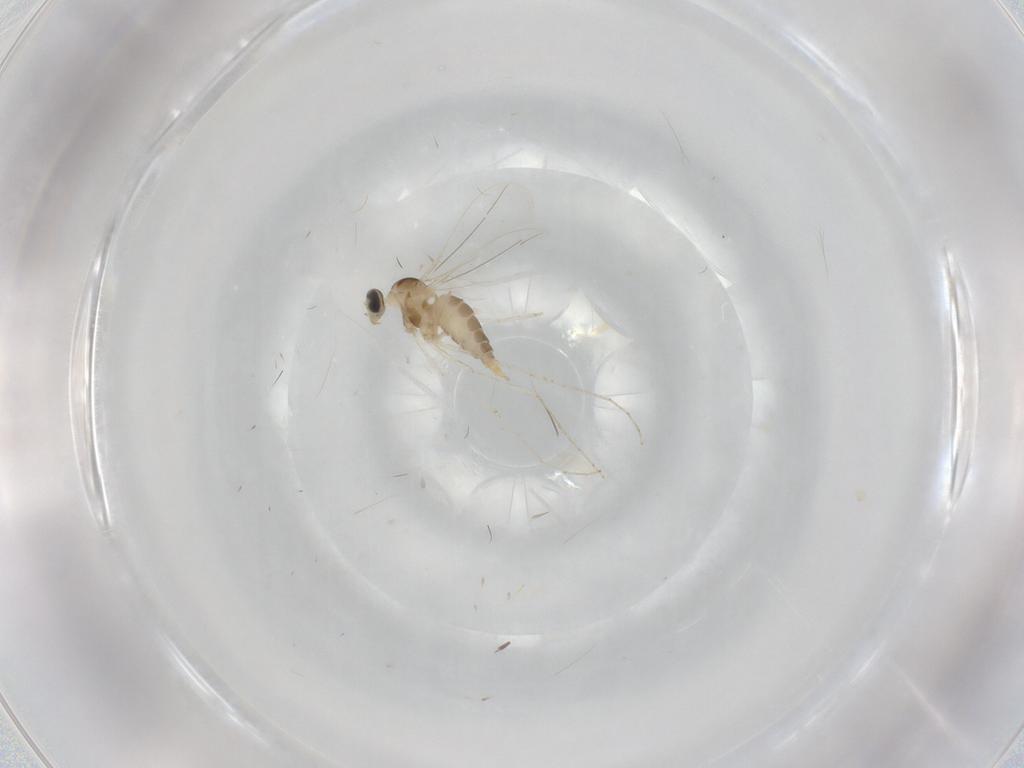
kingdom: Animalia
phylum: Arthropoda
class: Insecta
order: Diptera
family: Cecidomyiidae
